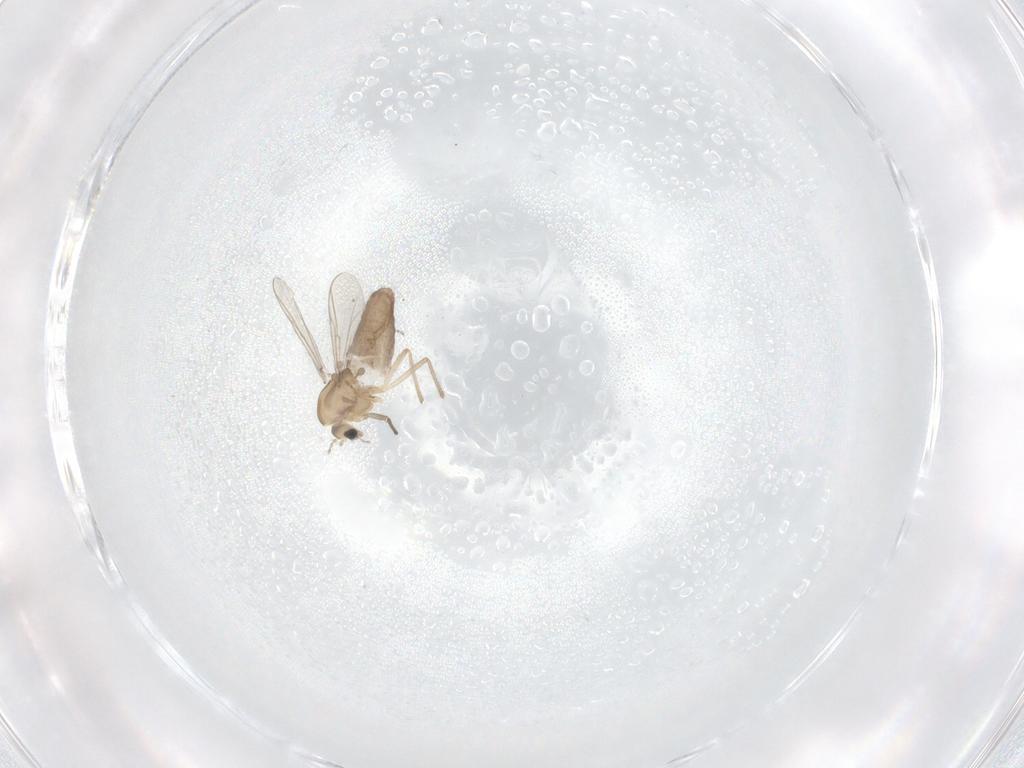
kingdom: Animalia
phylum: Arthropoda
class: Insecta
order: Diptera
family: Chironomidae
